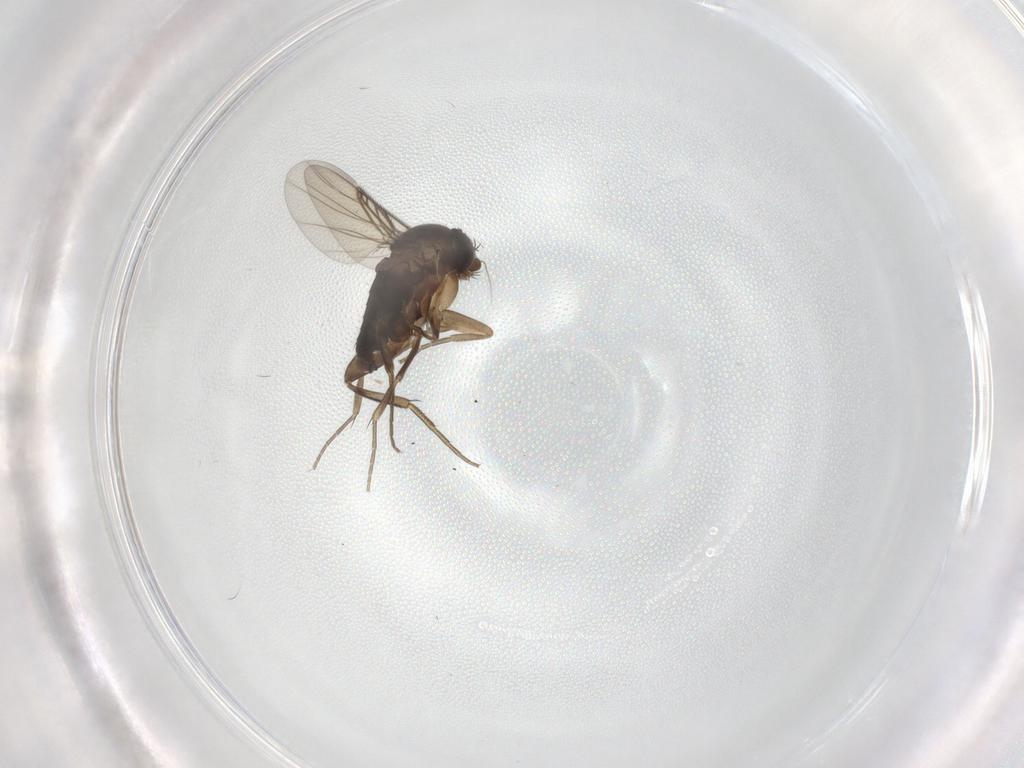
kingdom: Animalia
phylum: Arthropoda
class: Insecta
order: Diptera
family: Phoridae
